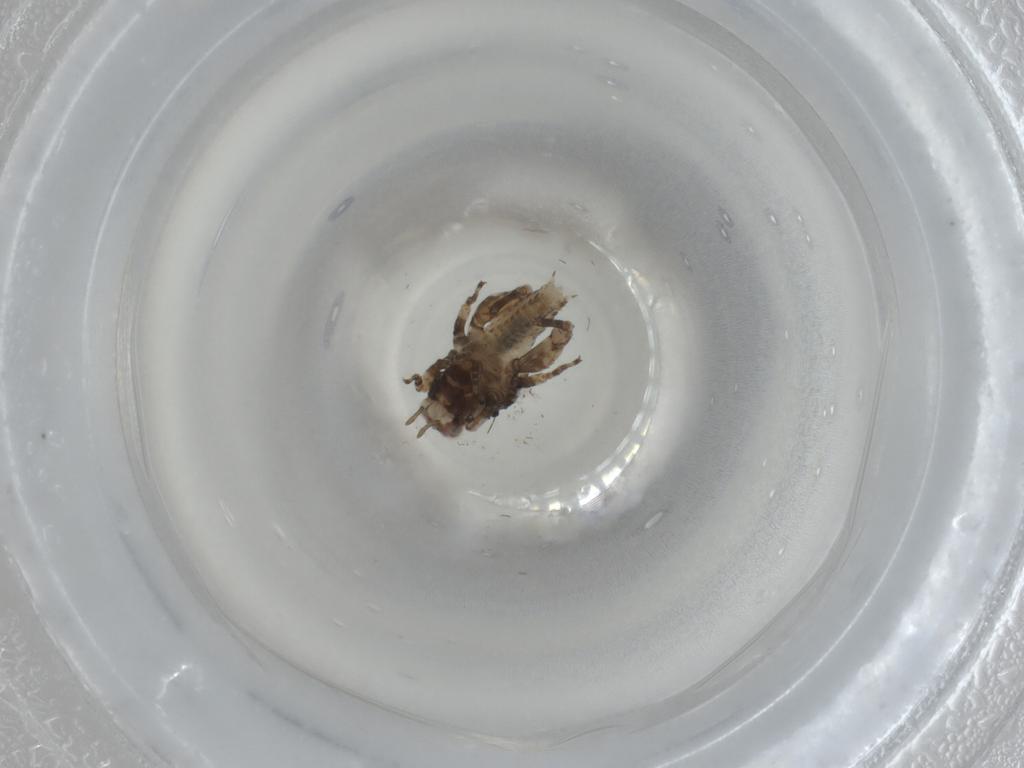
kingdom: Animalia
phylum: Arthropoda
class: Insecta
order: Orthoptera
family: Tetrigidae
